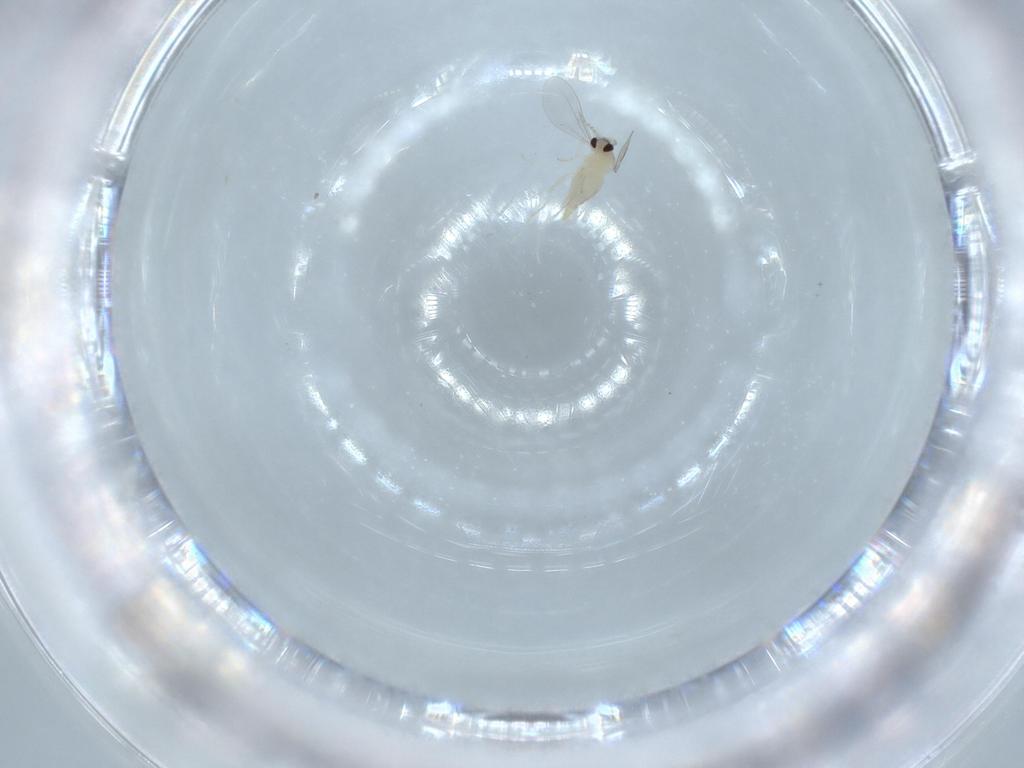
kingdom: Animalia
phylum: Arthropoda
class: Insecta
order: Diptera
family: Cecidomyiidae
